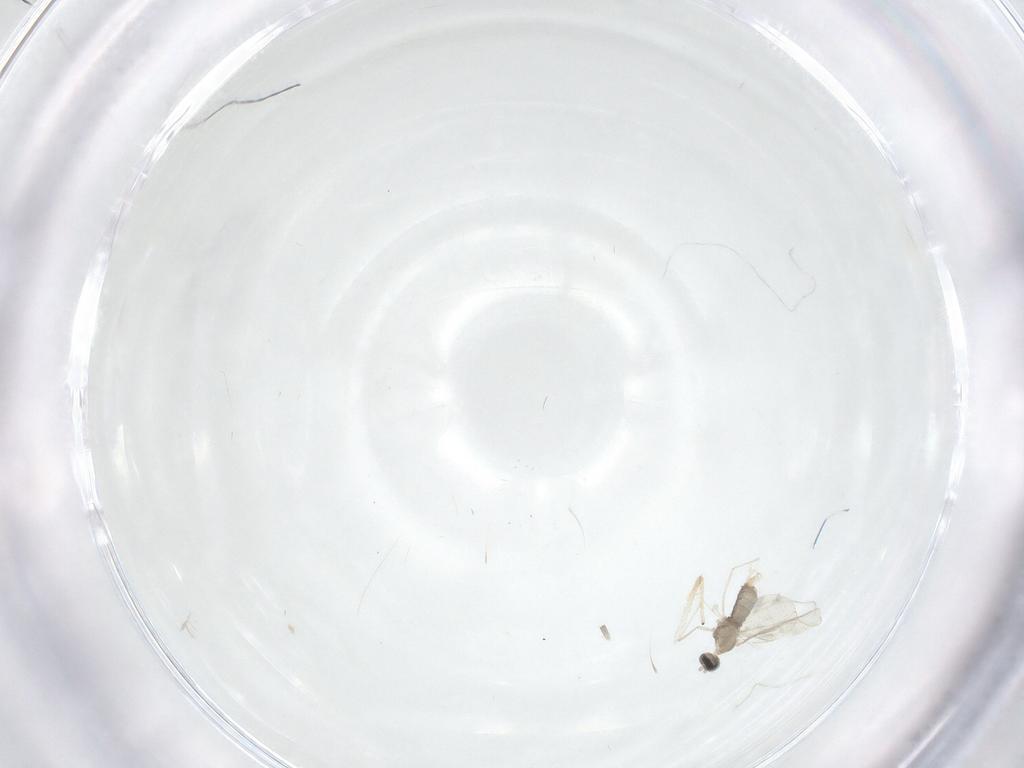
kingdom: Animalia
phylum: Arthropoda
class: Insecta
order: Diptera
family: Cecidomyiidae
